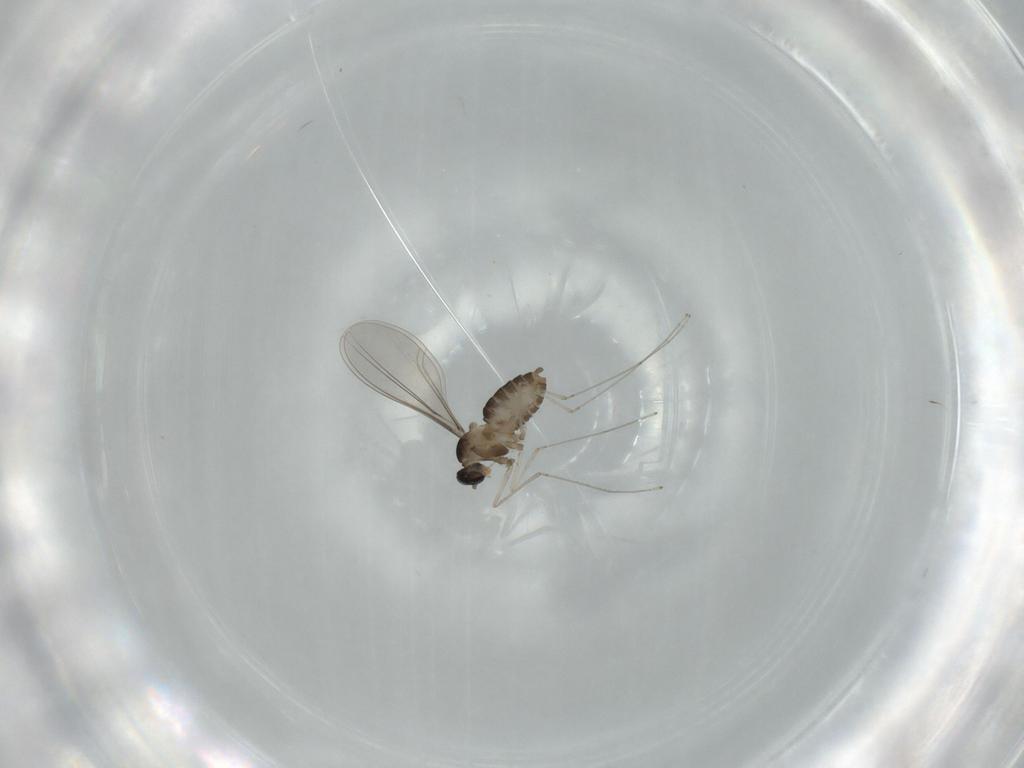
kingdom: Animalia
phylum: Arthropoda
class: Insecta
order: Diptera
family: Cecidomyiidae
